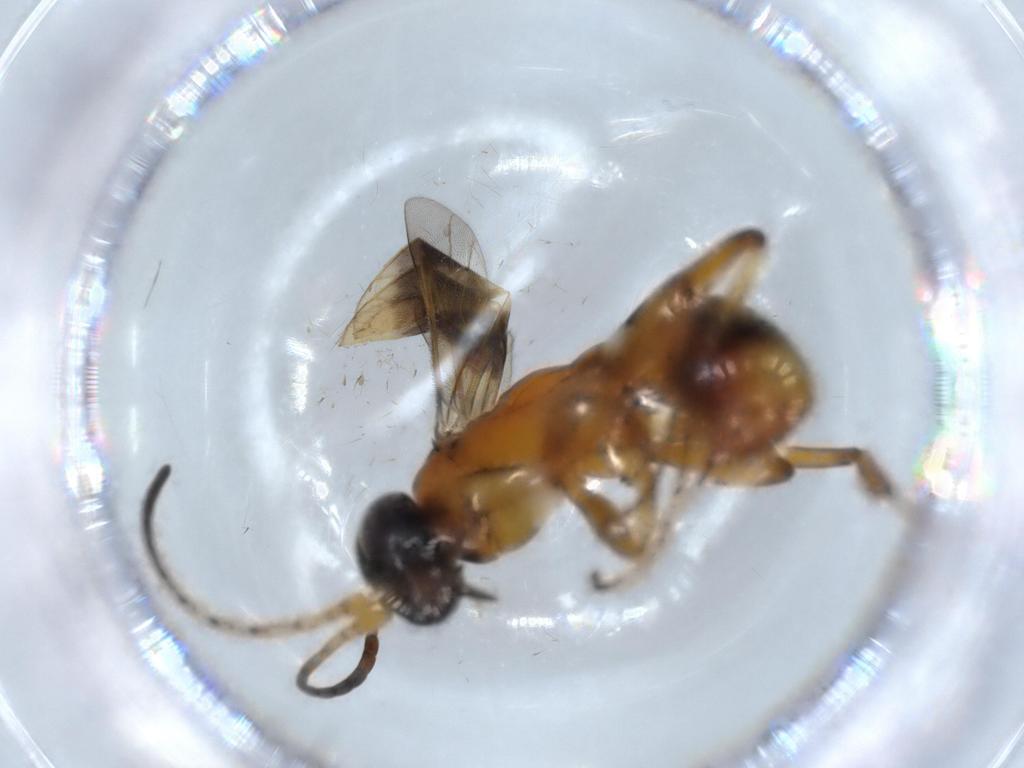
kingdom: Animalia
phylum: Arthropoda
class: Insecta
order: Hymenoptera
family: Pompilidae
